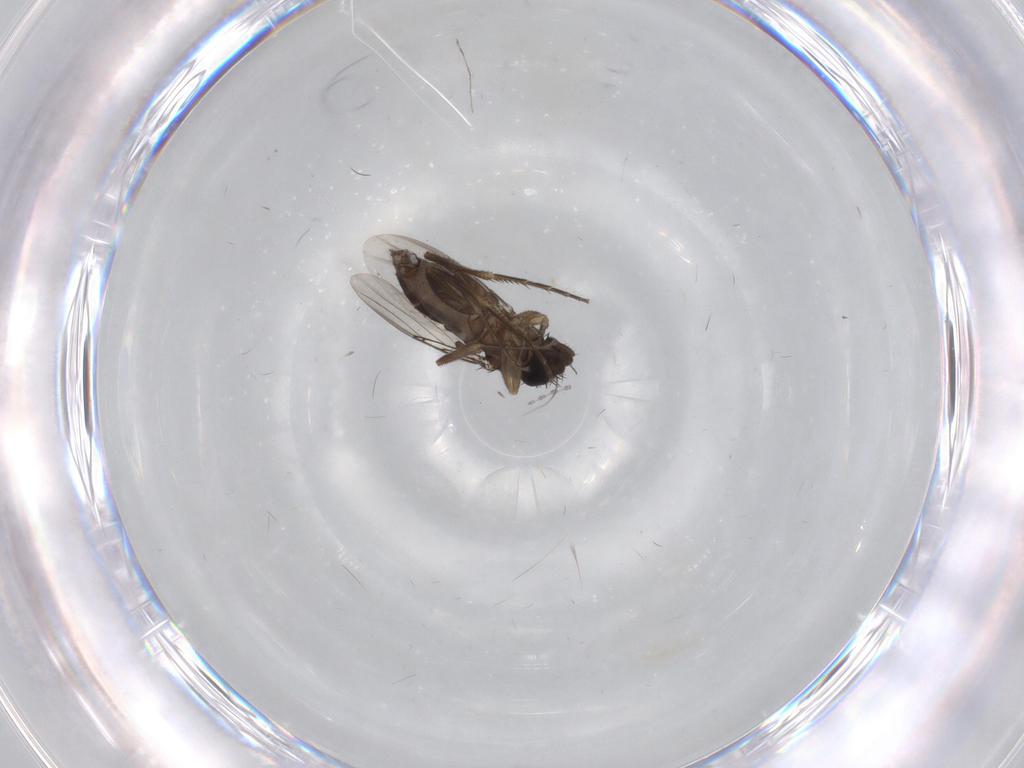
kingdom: Animalia
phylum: Arthropoda
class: Insecta
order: Diptera
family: Phoridae
